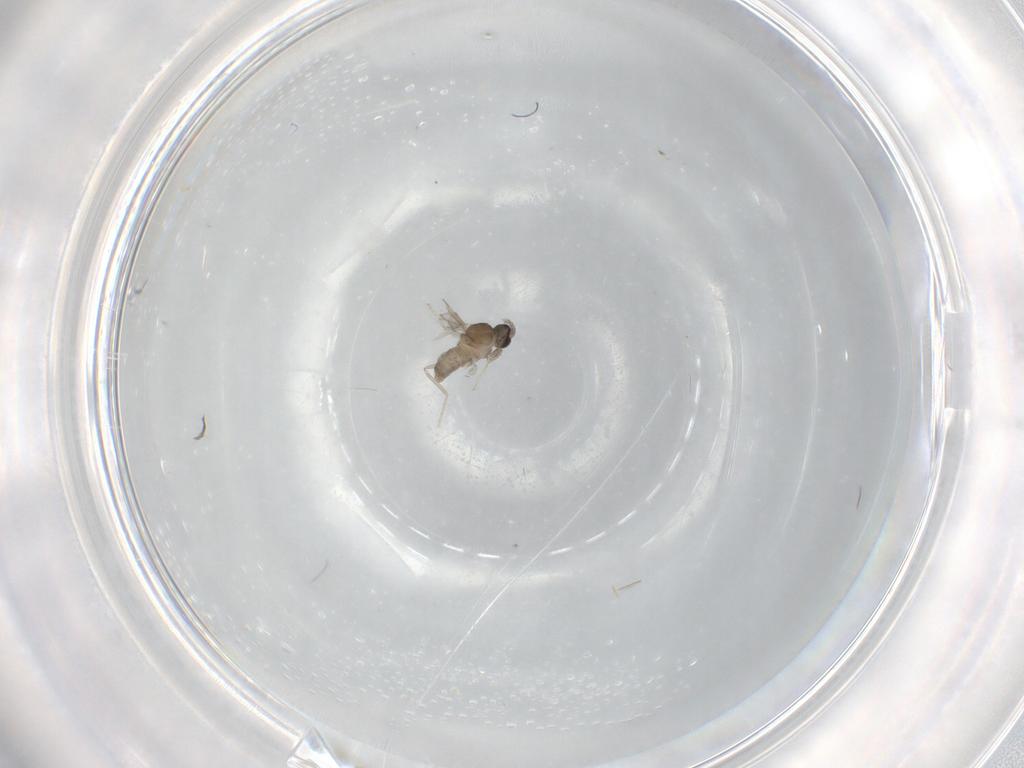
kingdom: Animalia
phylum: Arthropoda
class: Insecta
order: Diptera
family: Cecidomyiidae
